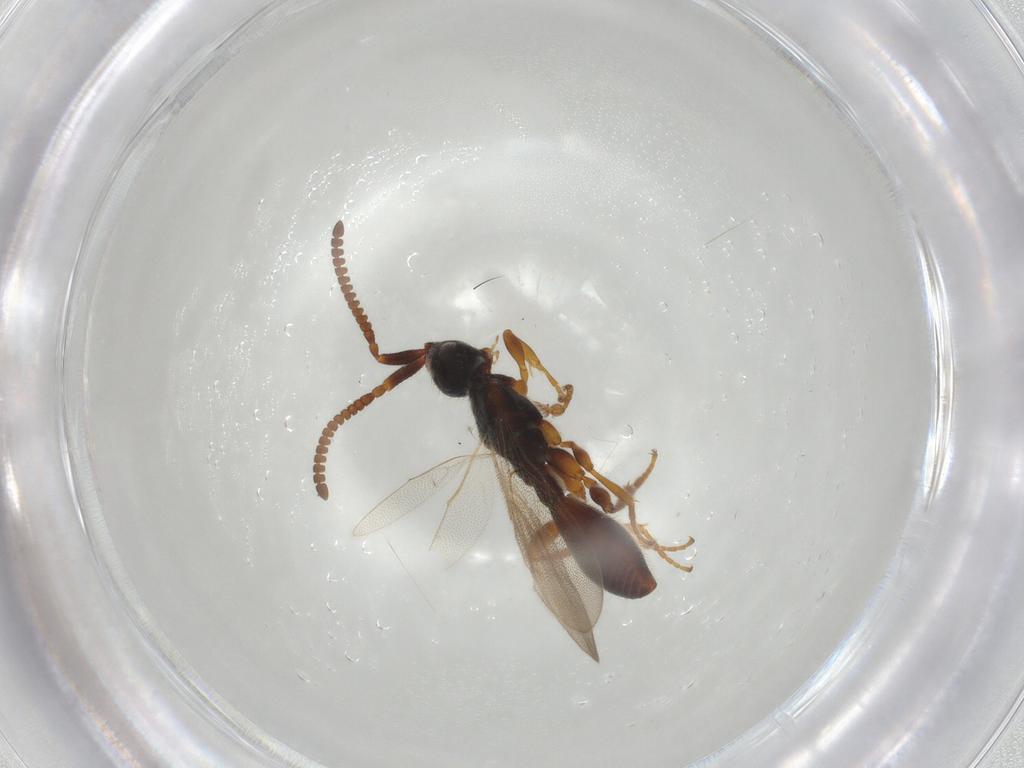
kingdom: Animalia
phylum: Arthropoda
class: Insecta
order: Hymenoptera
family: Diapriidae
